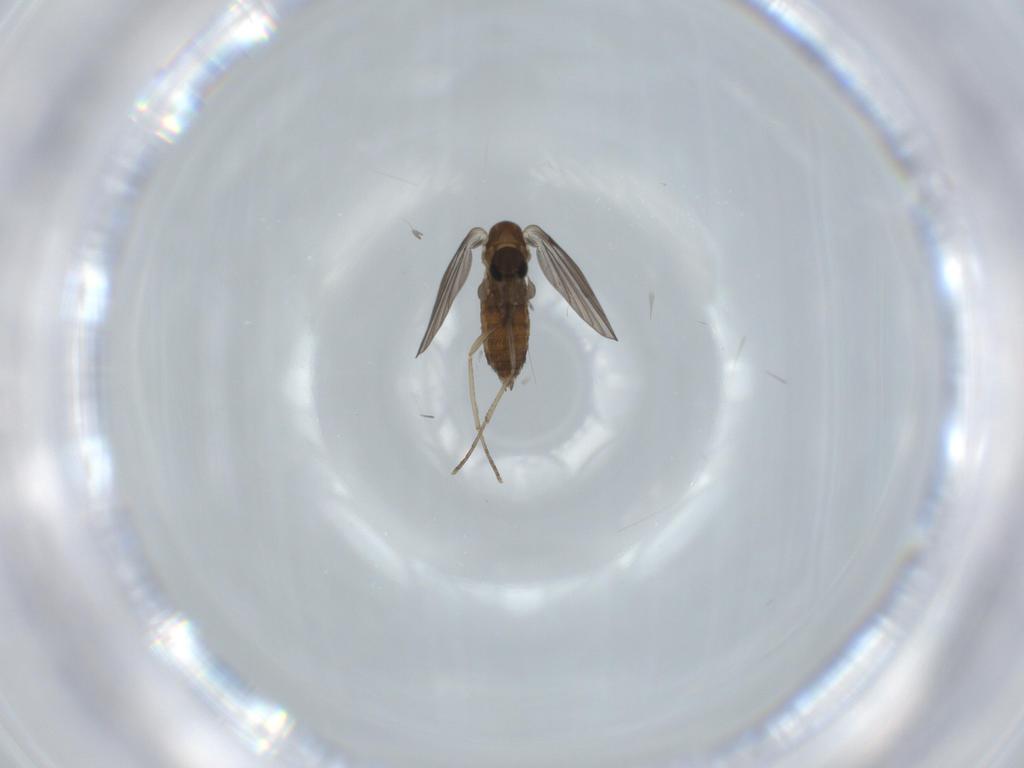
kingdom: Animalia
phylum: Arthropoda
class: Insecta
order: Diptera
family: Psychodidae
